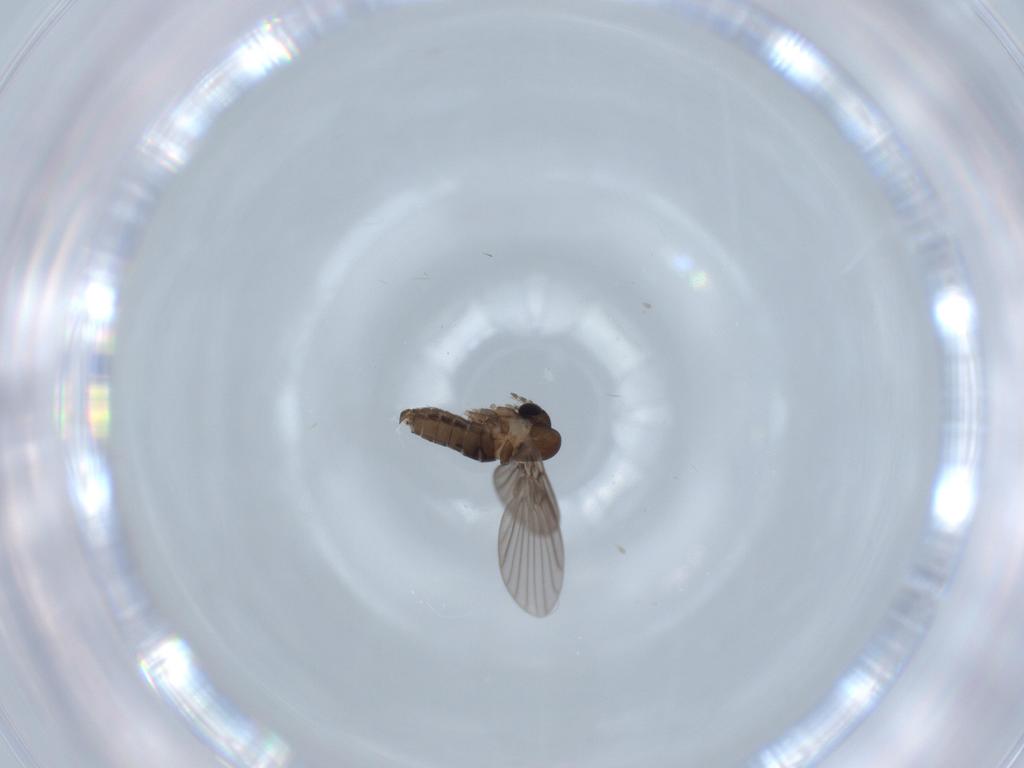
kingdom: Animalia
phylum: Arthropoda
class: Insecta
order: Diptera
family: Psychodidae
